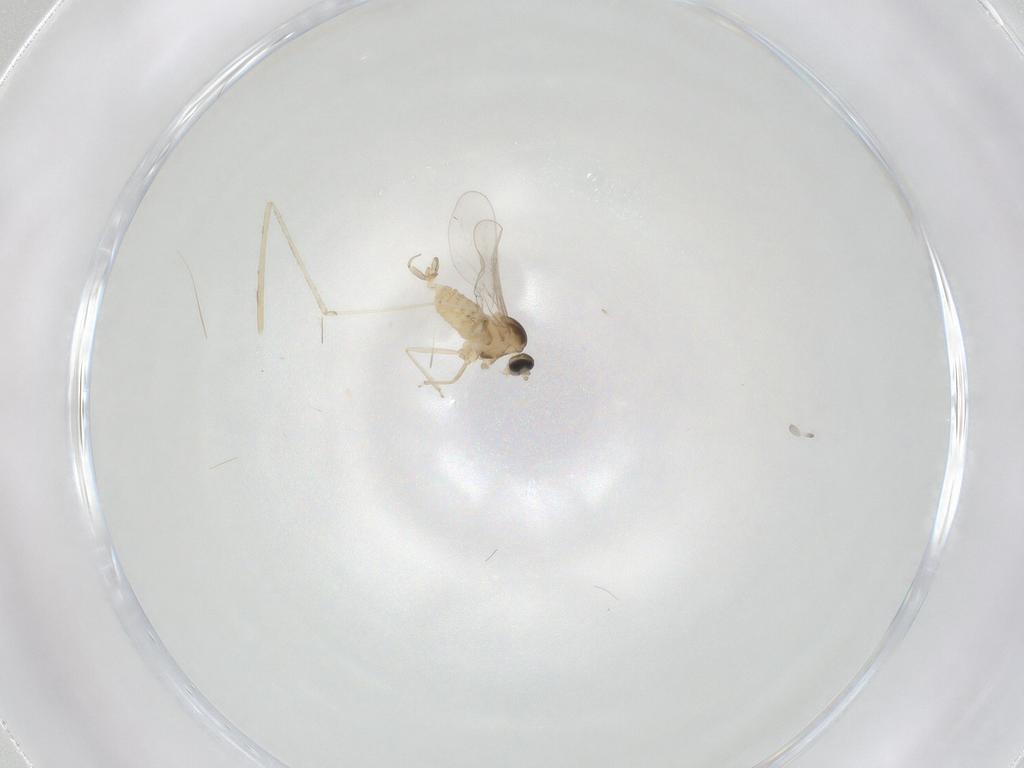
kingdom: Animalia
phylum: Arthropoda
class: Insecta
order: Diptera
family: Cecidomyiidae
